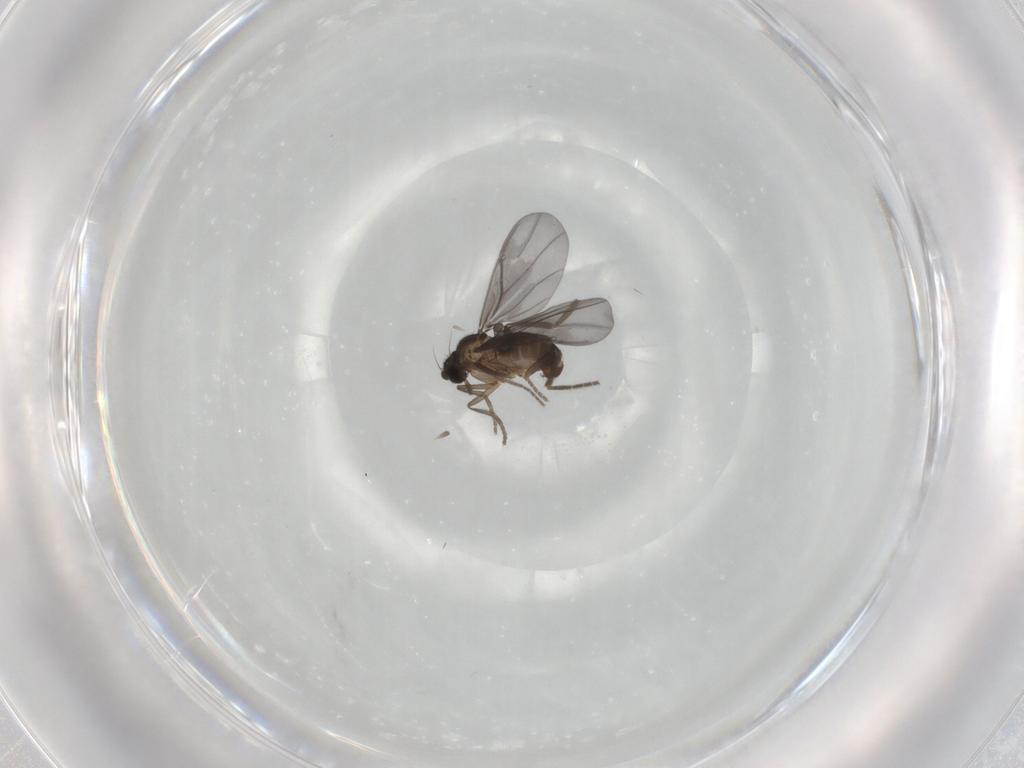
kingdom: Animalia
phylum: Arthropoda
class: Insecta
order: Diptera
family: Phoridae
